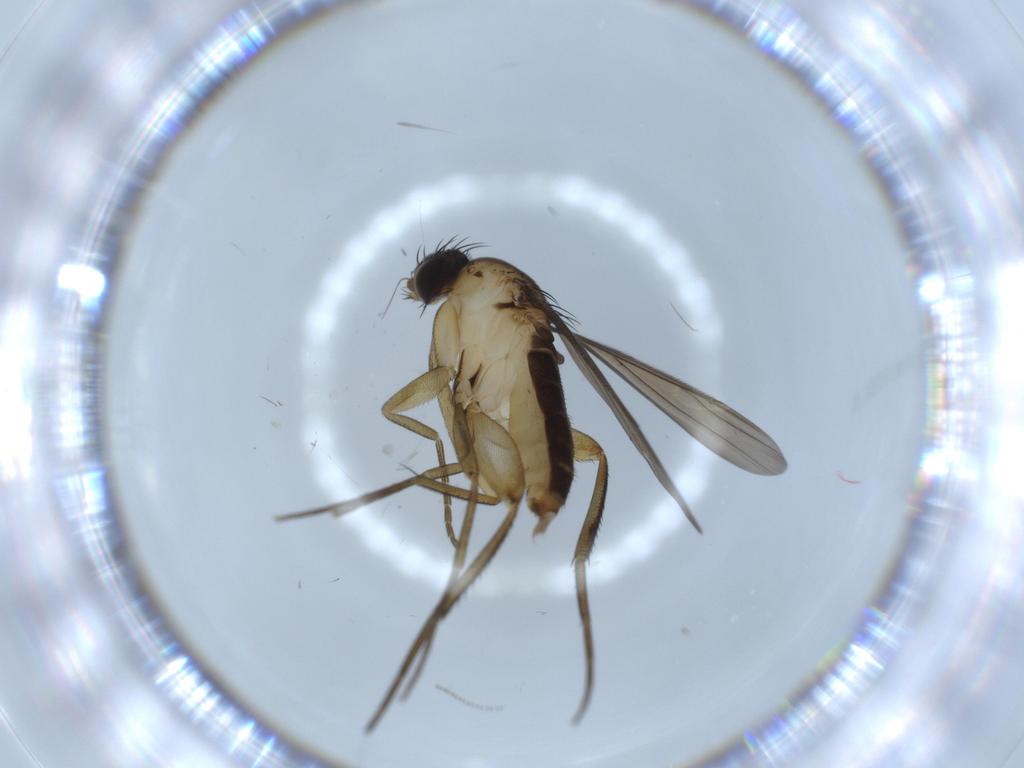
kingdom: Animalia
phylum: Arthropoda
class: Insecta
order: Diptera
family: Phoridae
